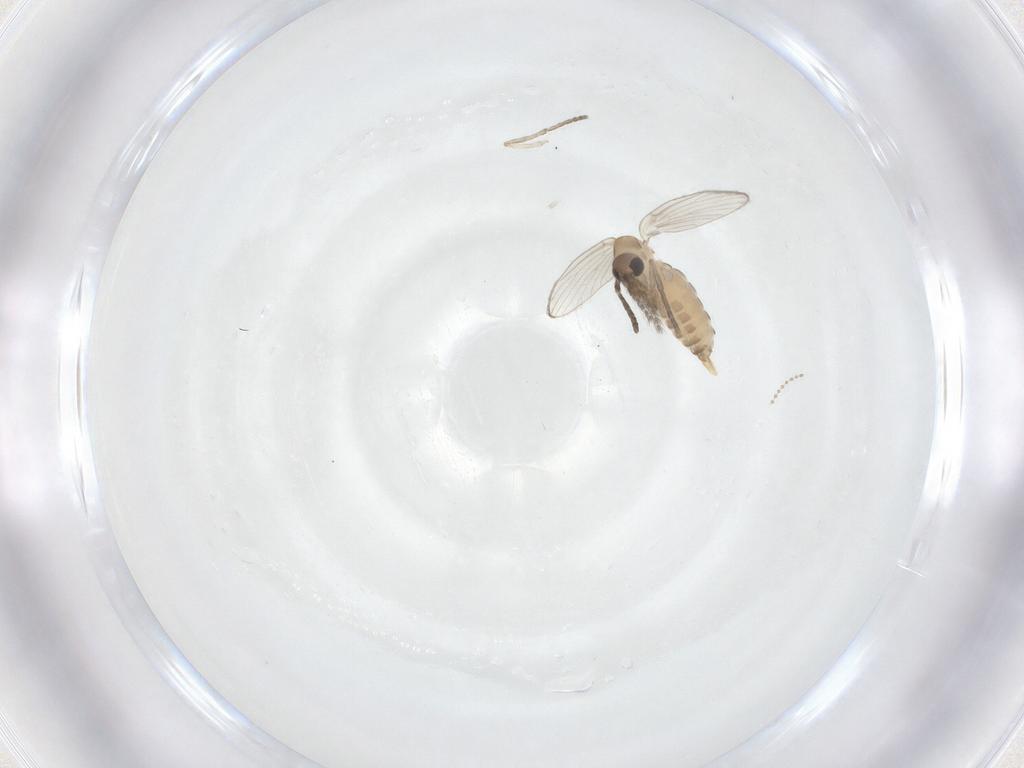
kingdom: Animalia
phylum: Arthropoda
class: Insecta
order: Diptera
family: Psychodidae
